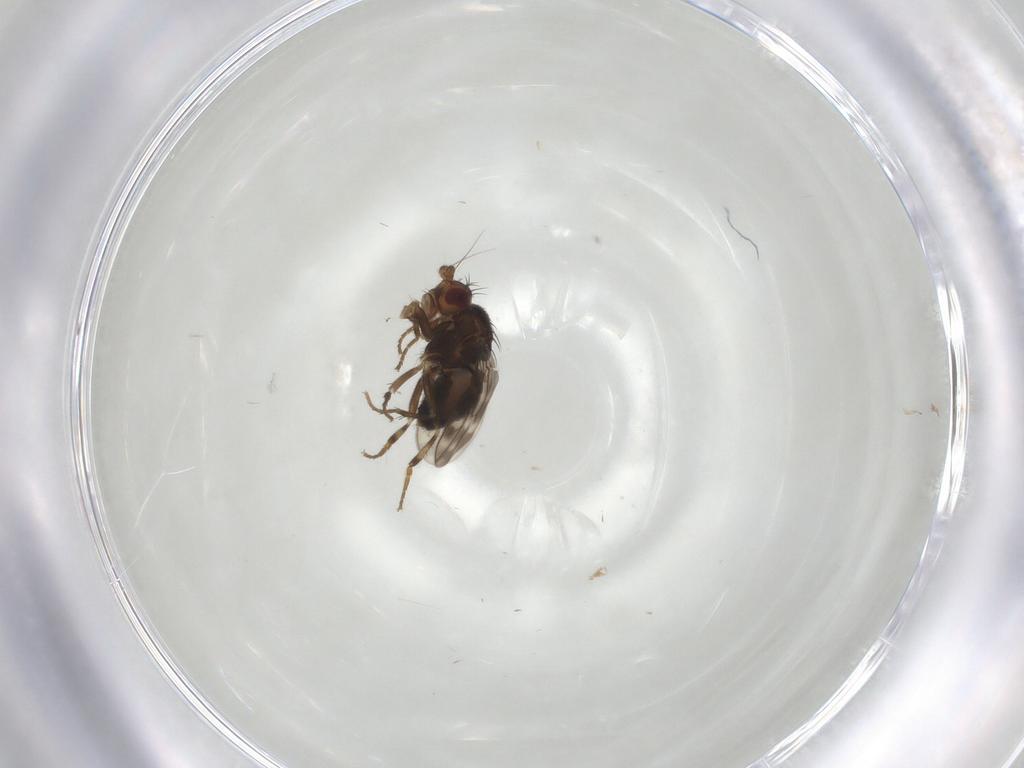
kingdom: Animalia
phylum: Arthropoda
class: Insecta
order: Diptera
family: Sphaeroceridae
